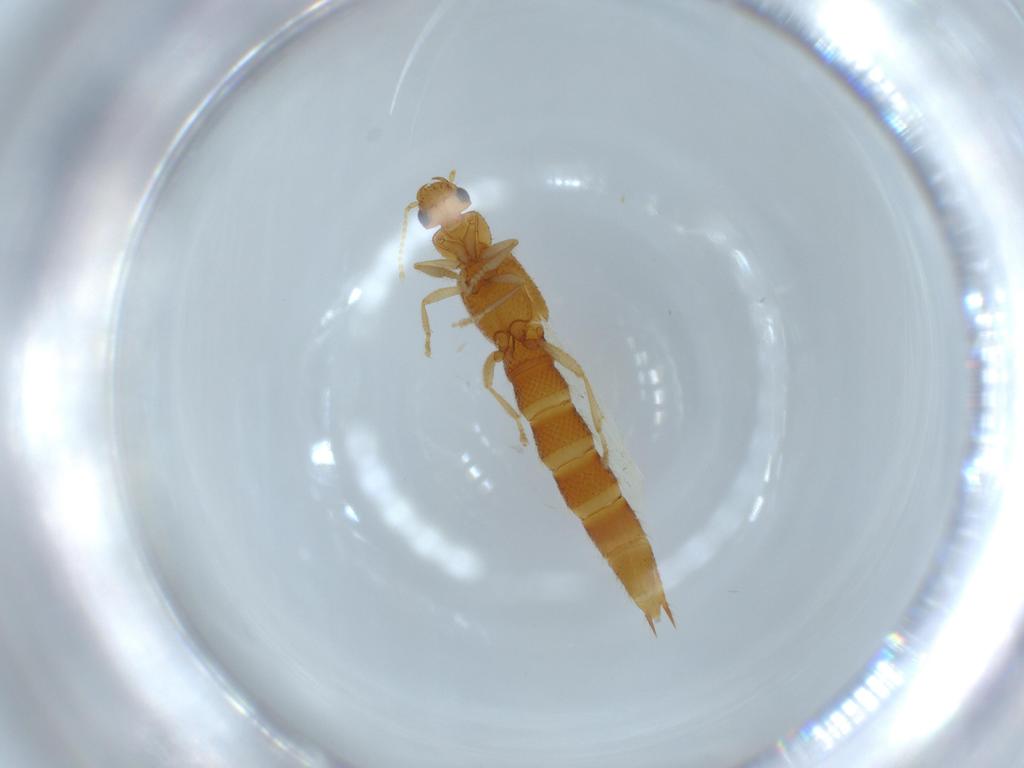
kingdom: Animalia
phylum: Arthropoda
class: Insecta
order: Coleoptera
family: Staphylinidae
